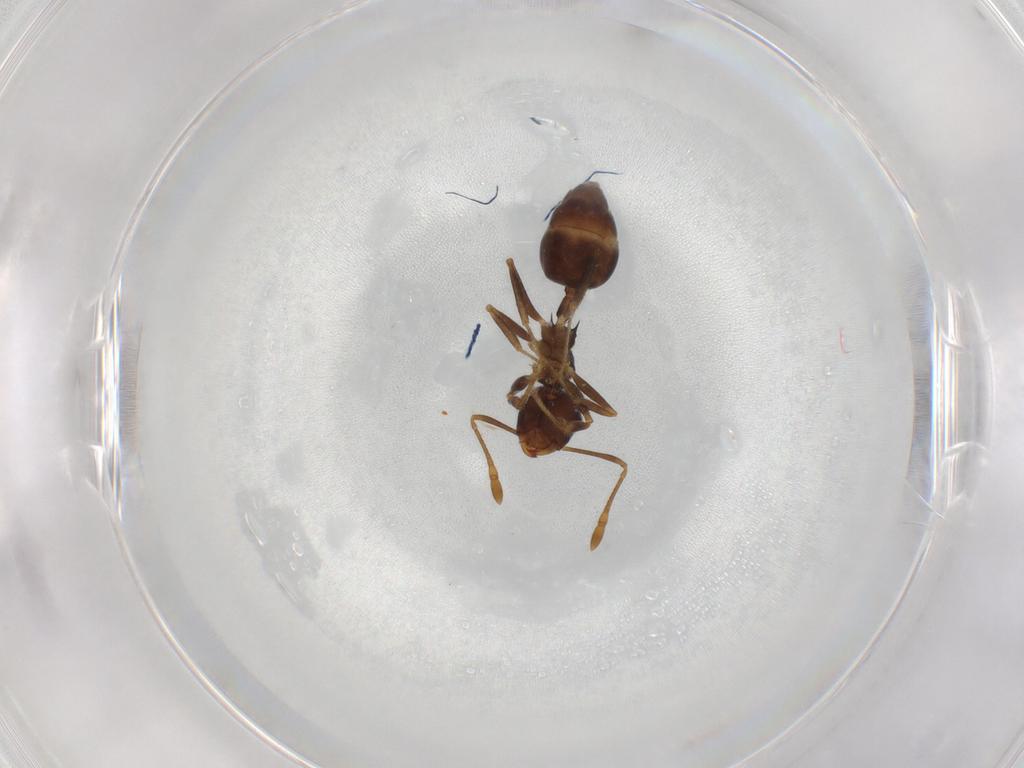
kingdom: Animalia
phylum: Arthropoda
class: Insecta
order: Hymenoptera
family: Formicidae
